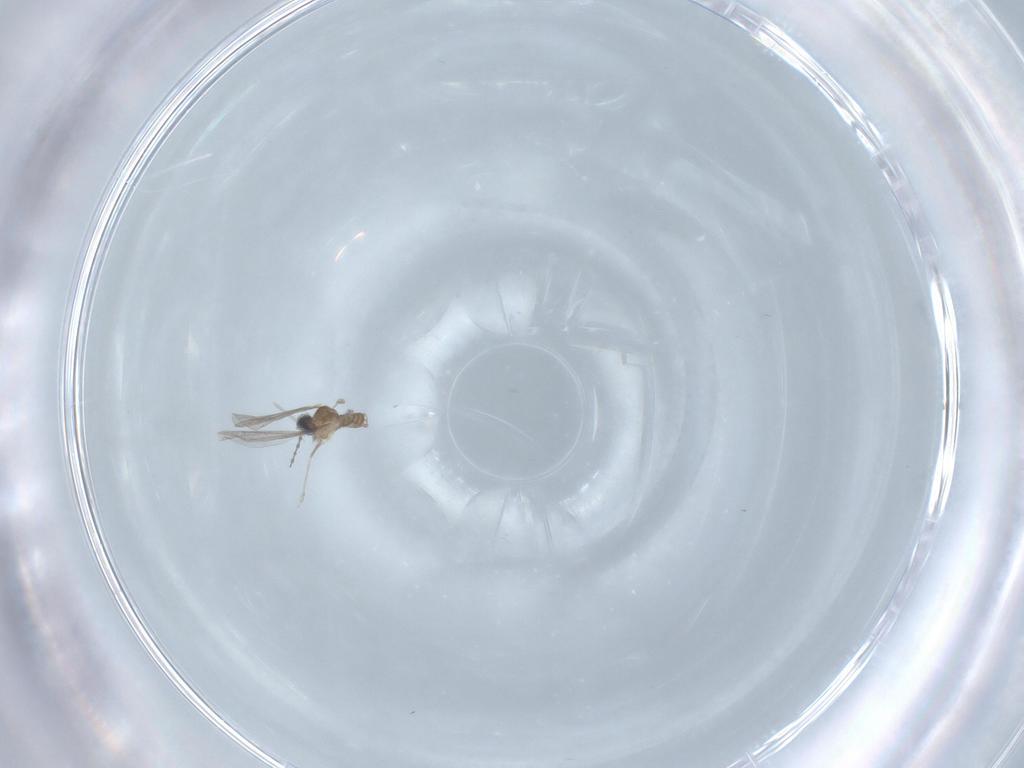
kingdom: Animalia
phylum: Arthropoda
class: Insecta
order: Diptera
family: Cecidomyiidae
